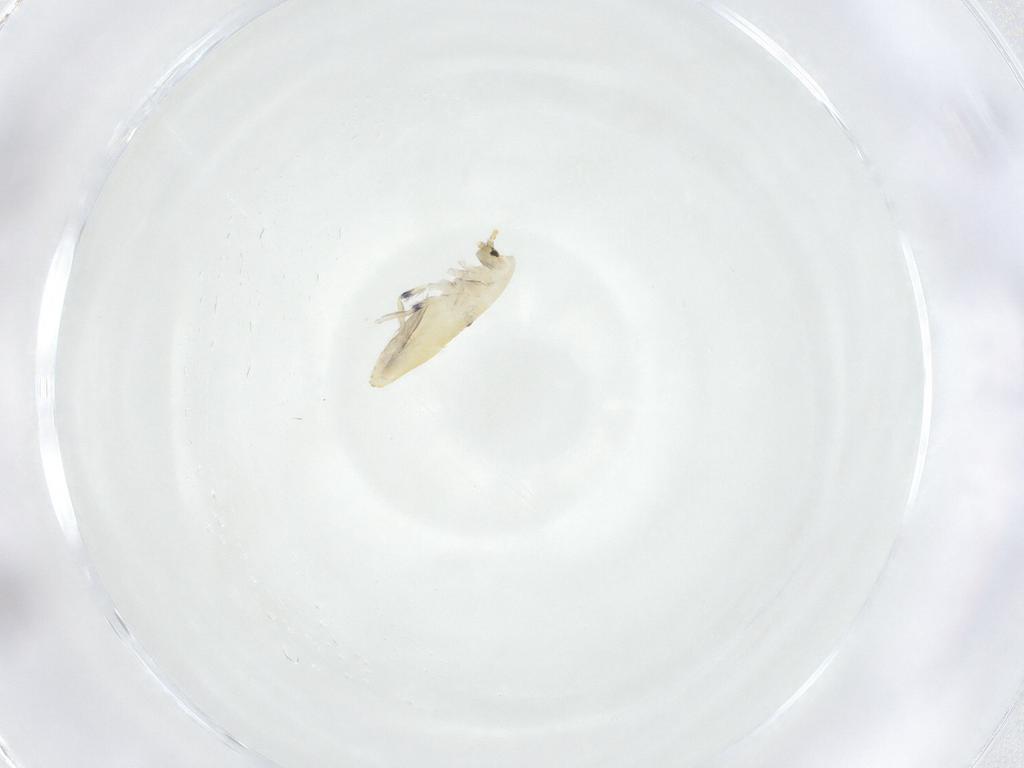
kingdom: Animalia
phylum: Arthropoda
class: Collembola
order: Entomobryomorpha
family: Entomobryidae
